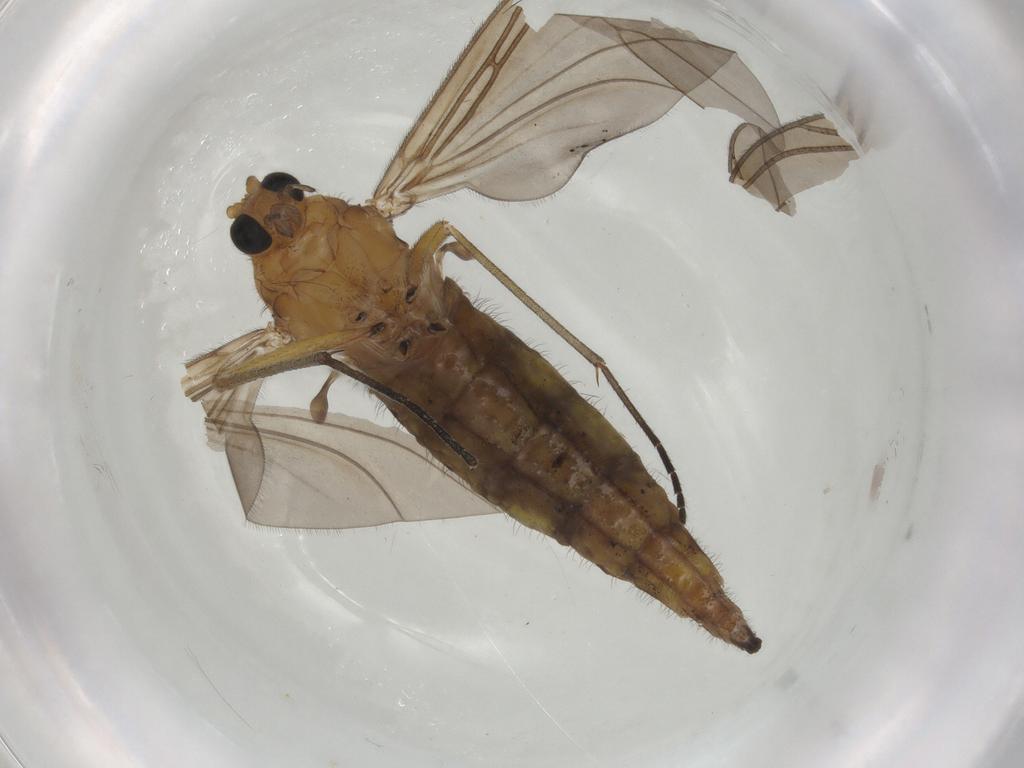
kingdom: Animalia
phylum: Arthropoda
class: Insecta
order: Diptera
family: Sciaridae
